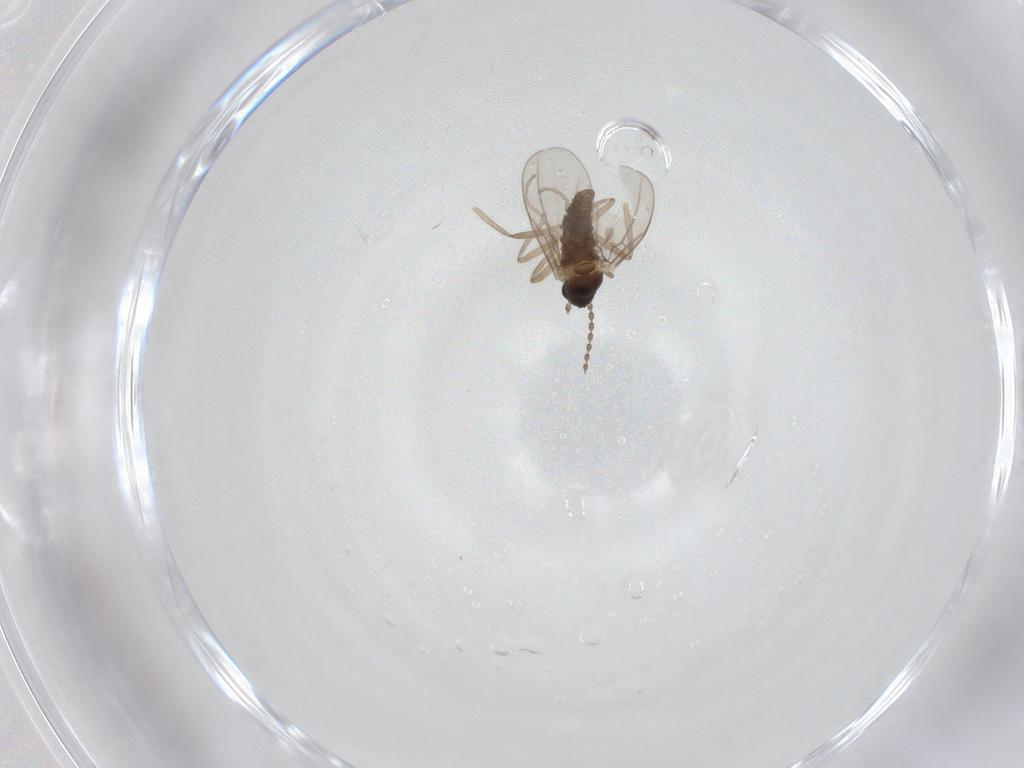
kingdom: Animalia
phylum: Arthropoda
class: Insecta
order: Diptera
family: Cecidomyiidae
